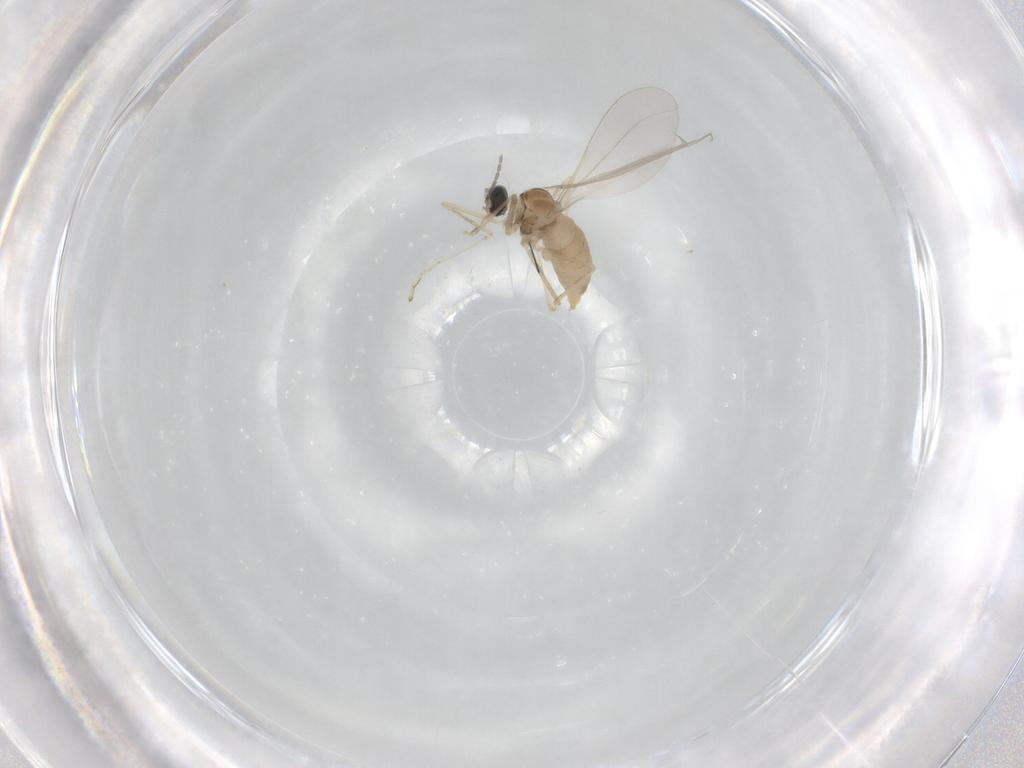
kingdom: Animalia
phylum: Arthropoda
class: Insecta
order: Diptera
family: Cecidomyiidae
